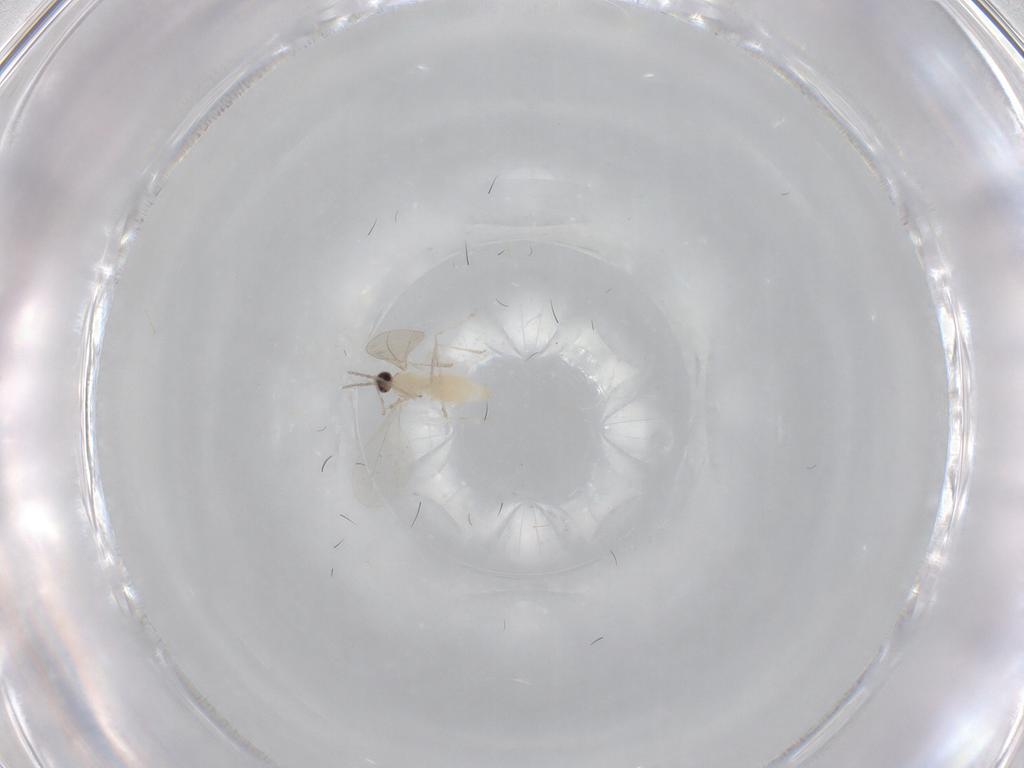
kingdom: Animalia
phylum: Arthropoda
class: Insecta
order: Diptera
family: Cecidomyiidae
